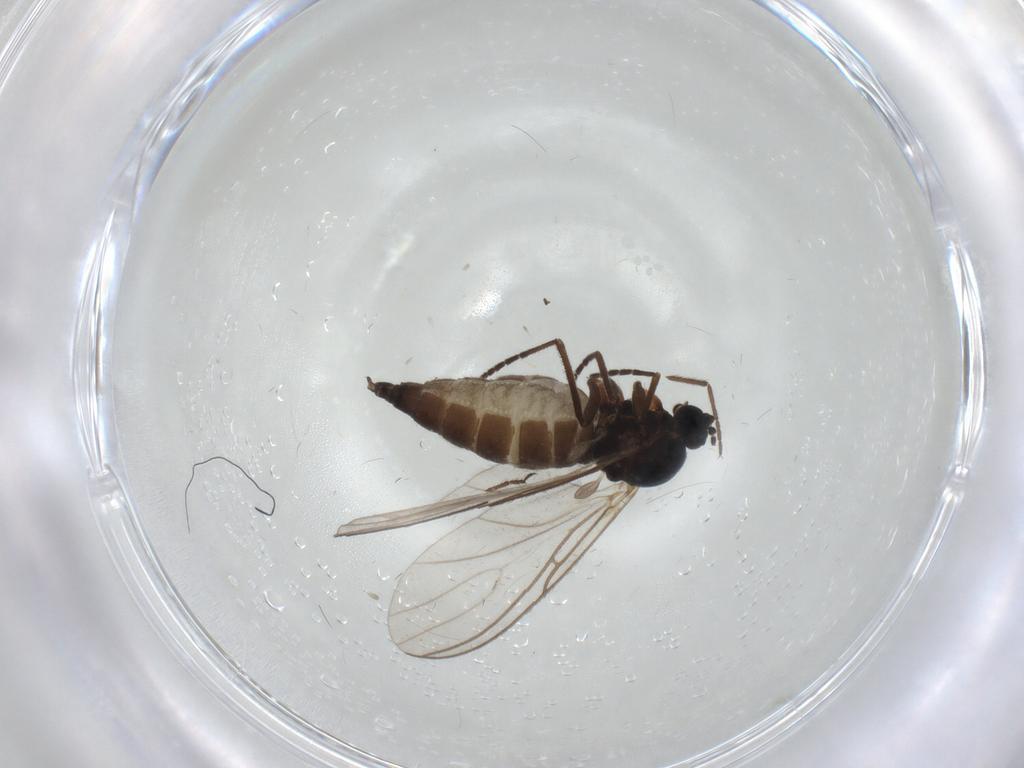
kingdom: Animalia
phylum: Arthropoda
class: Insecta
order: Diptera
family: Sciaridae
